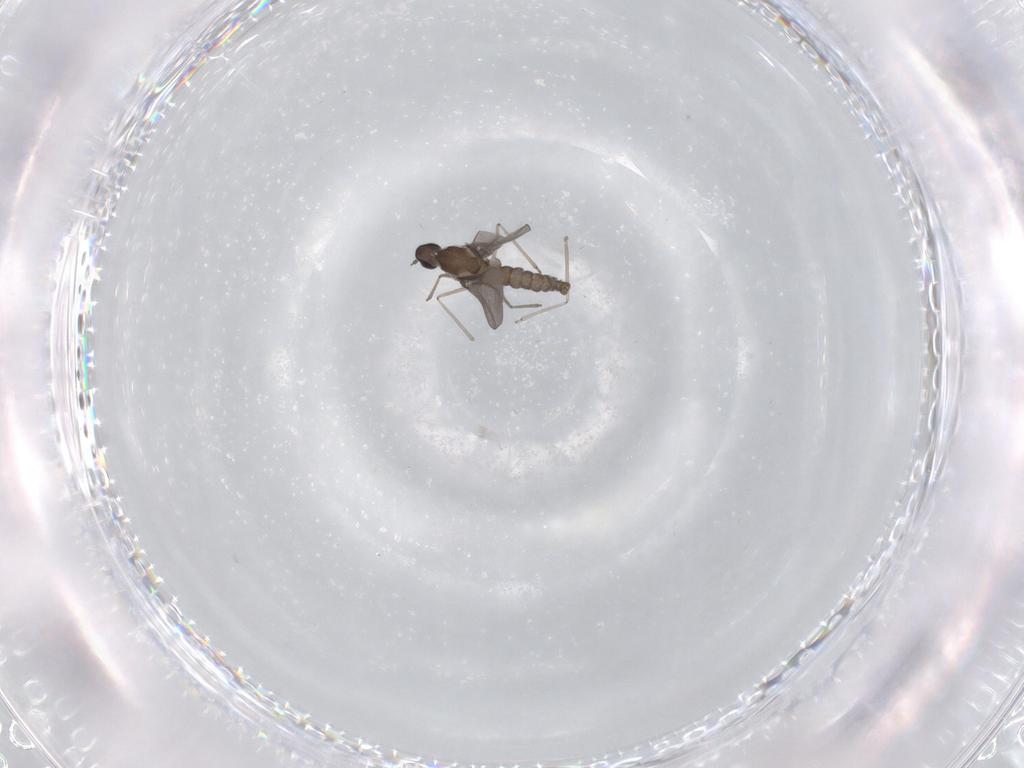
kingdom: Animalia
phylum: Arthropoda
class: Insecta
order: Diptera
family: Cecidomyiidae
